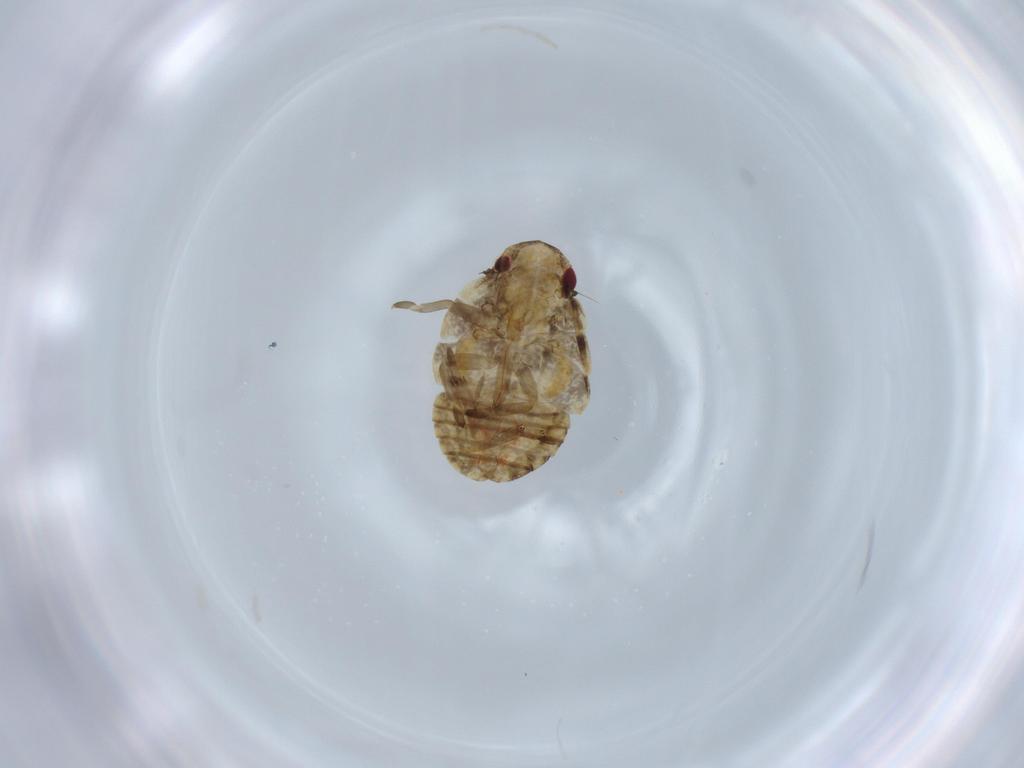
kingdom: Animalia
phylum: Arthropoda
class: Insecta
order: Hemiptera
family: Flatidae
